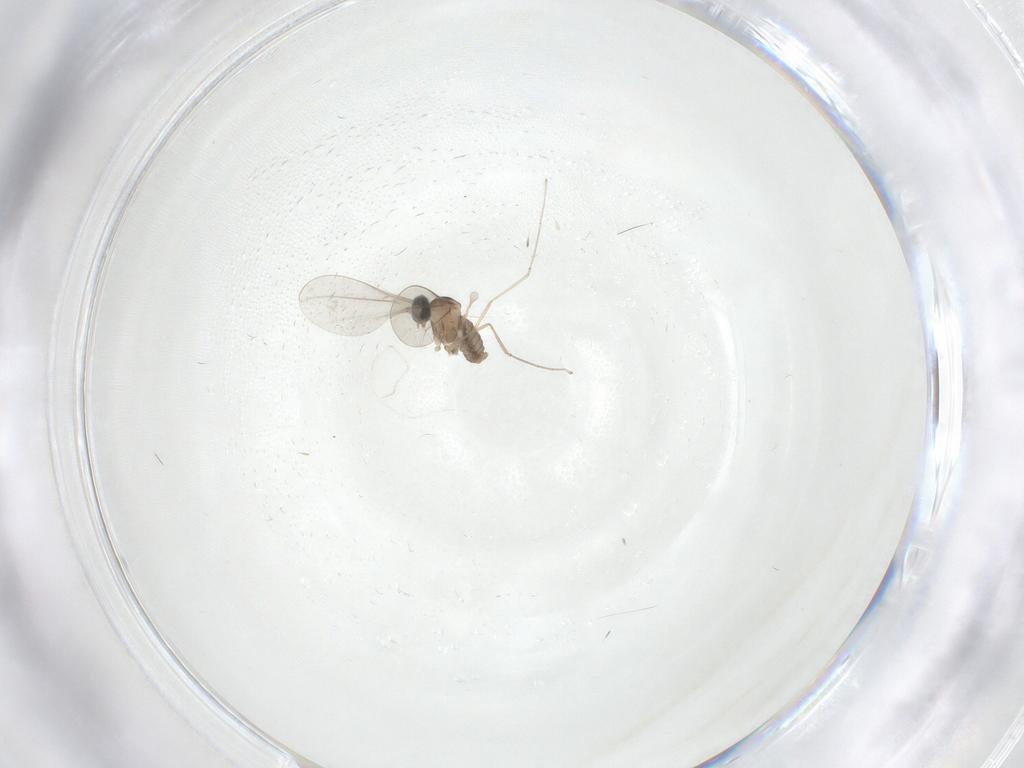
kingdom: Animalia
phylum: Arthropoda
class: Insecta
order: Diptera
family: Cecidomyiidae
